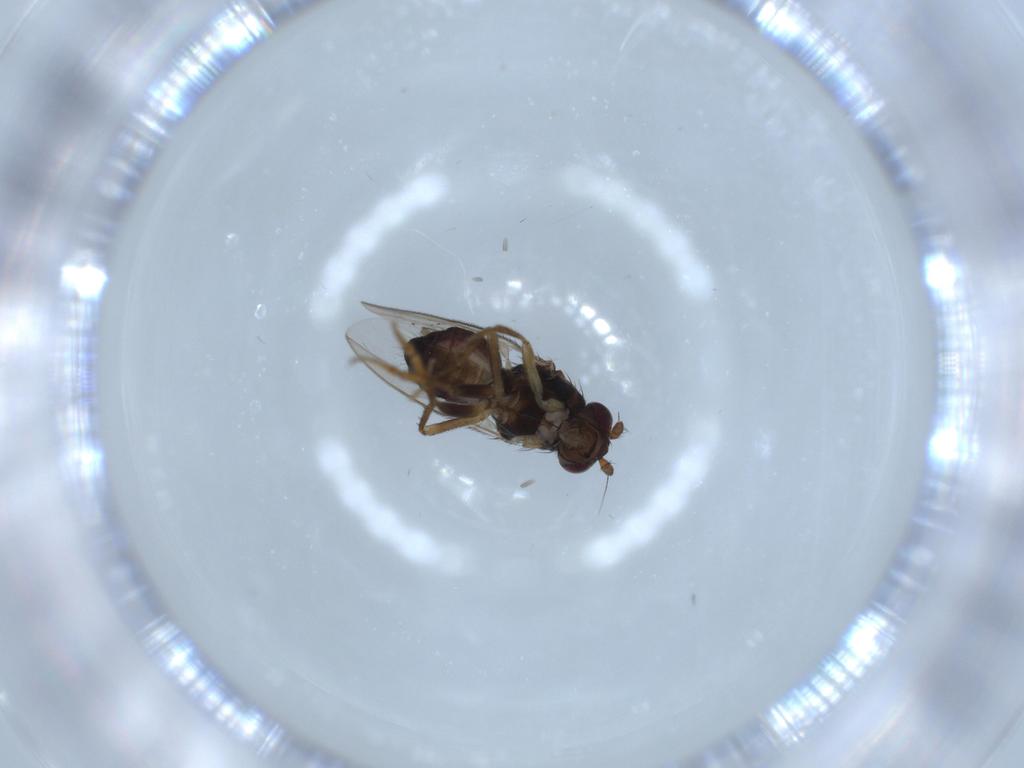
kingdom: Animalia
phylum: Arthropoda
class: Insecta
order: Diptera
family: Sphaeroceridae
